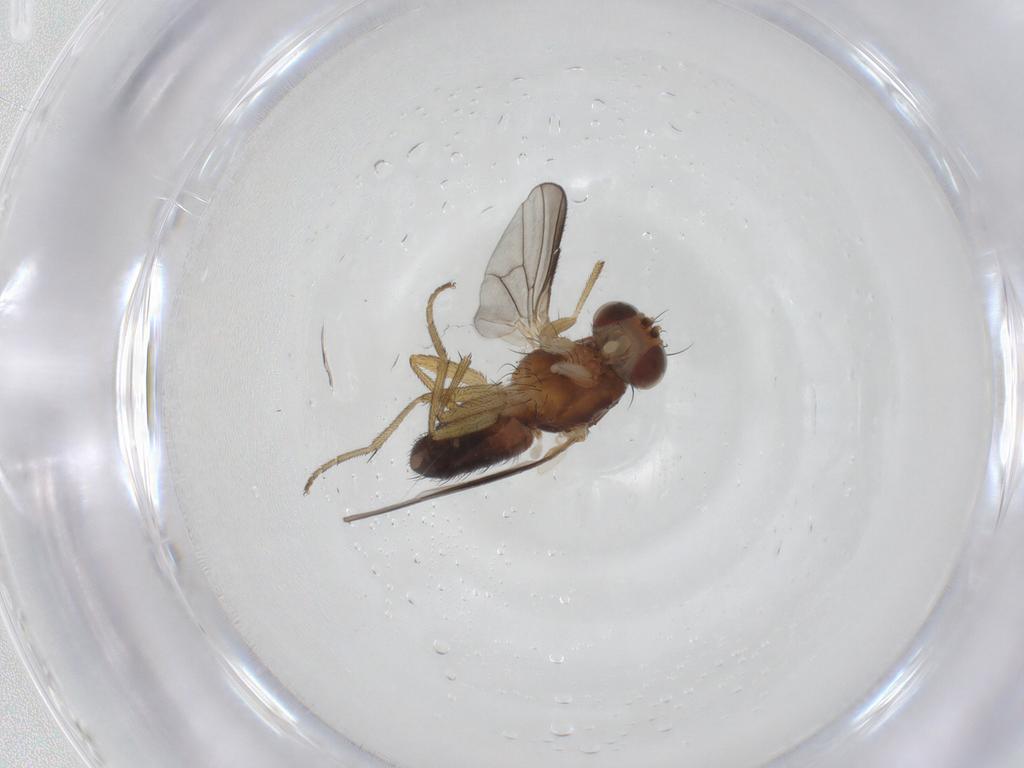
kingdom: Animalia
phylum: Arthropoda
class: Insecta
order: Diptera
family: Heleomyzidae
